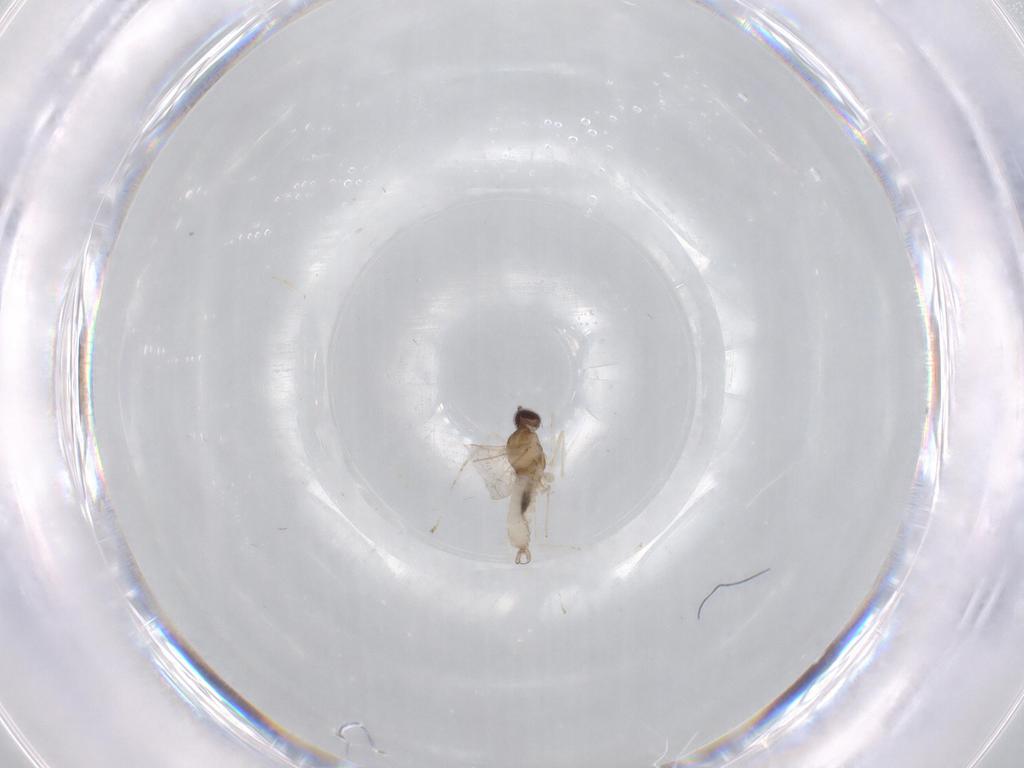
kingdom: Animalia
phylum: Arthropoda
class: Insecta
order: Diptera
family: Cecidomyiidae
